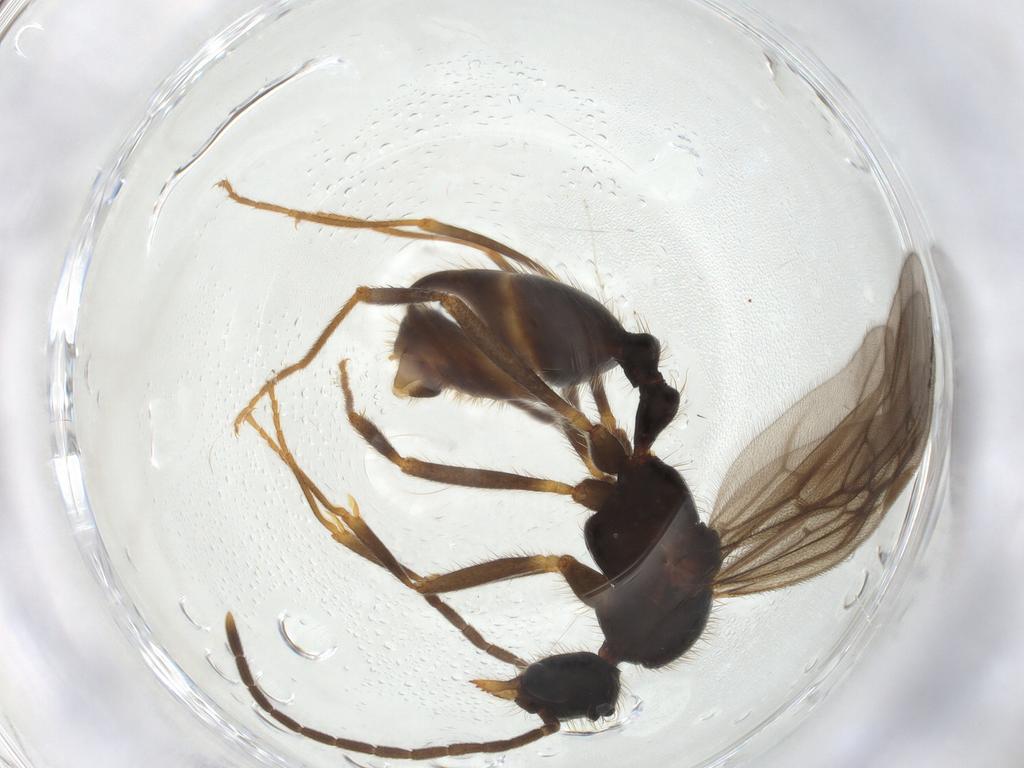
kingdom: Animalia
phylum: Arthropoda
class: Insecta
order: Hymenoptera
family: Formicidae
